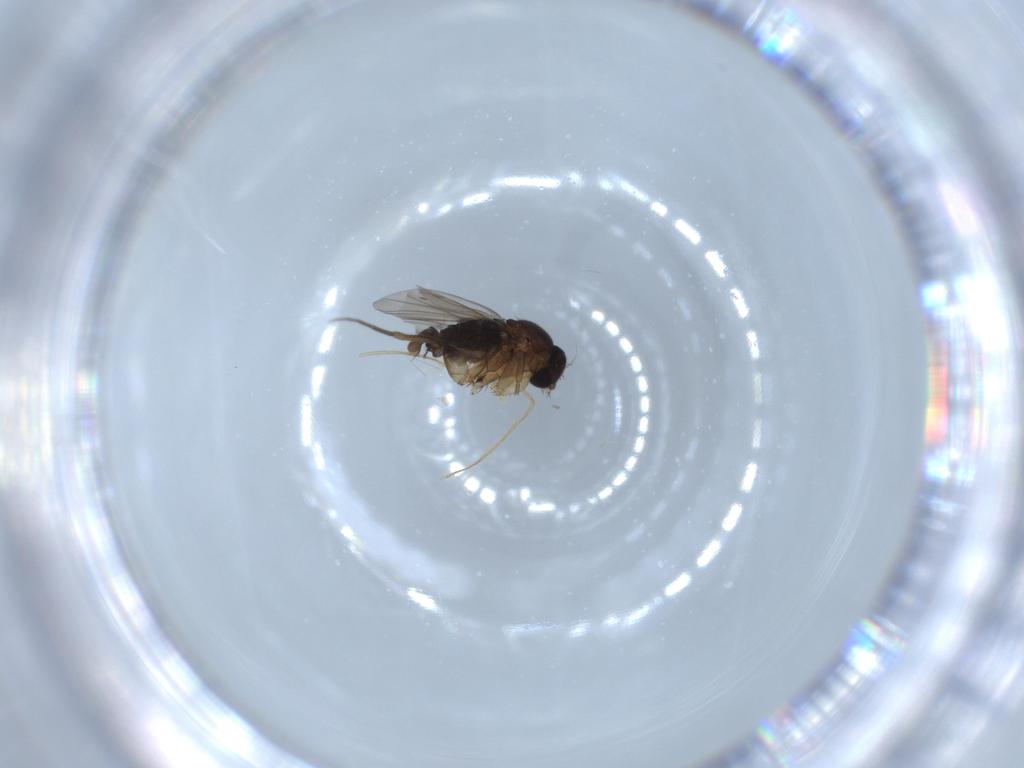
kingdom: Animalia
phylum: Arthropoda
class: Insecta
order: Diptera
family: Phoridae
